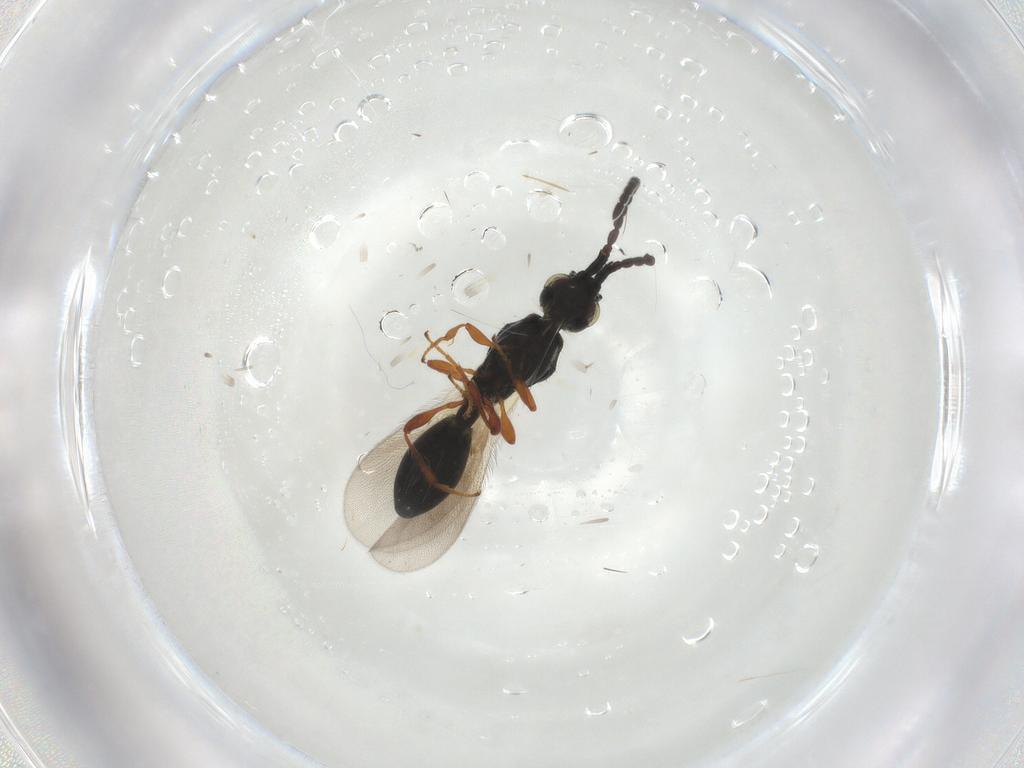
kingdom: Animalia
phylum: Arthropoda
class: Insecta
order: Hymenoptera
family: Diapriidae
